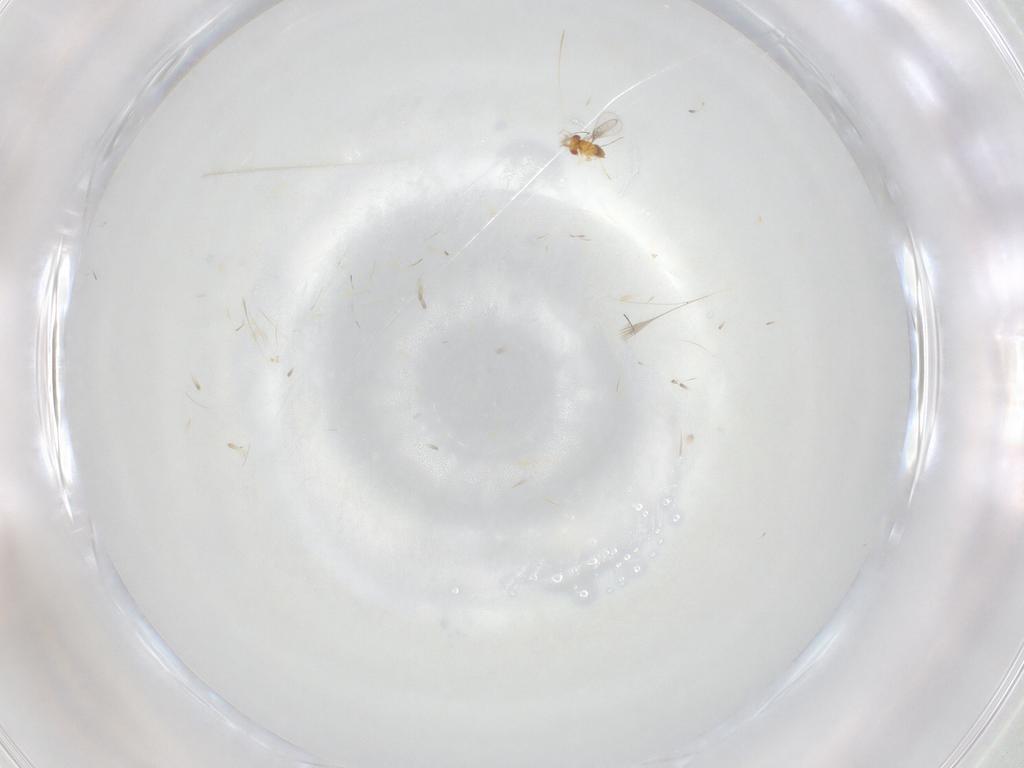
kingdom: Animalia
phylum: Arthropoda
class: Insecta
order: Hymenoptera
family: Trichogrammatidae
